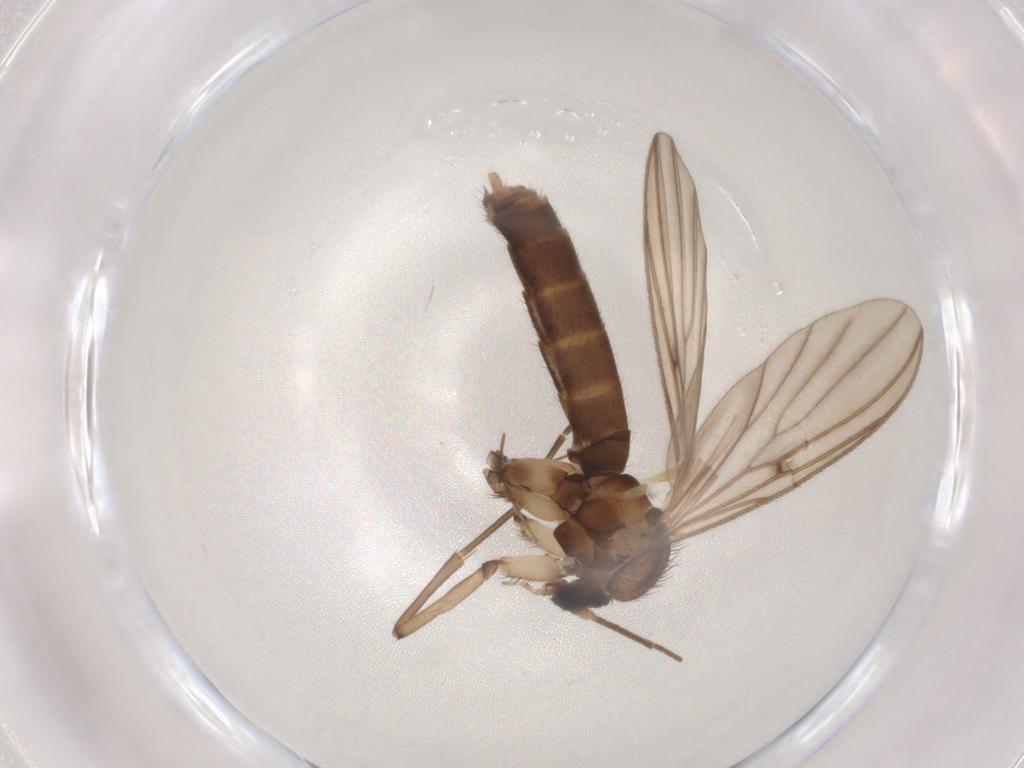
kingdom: Animalia
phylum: Arthropoda
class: Insecta
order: Diptera
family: Mycetophilidae
